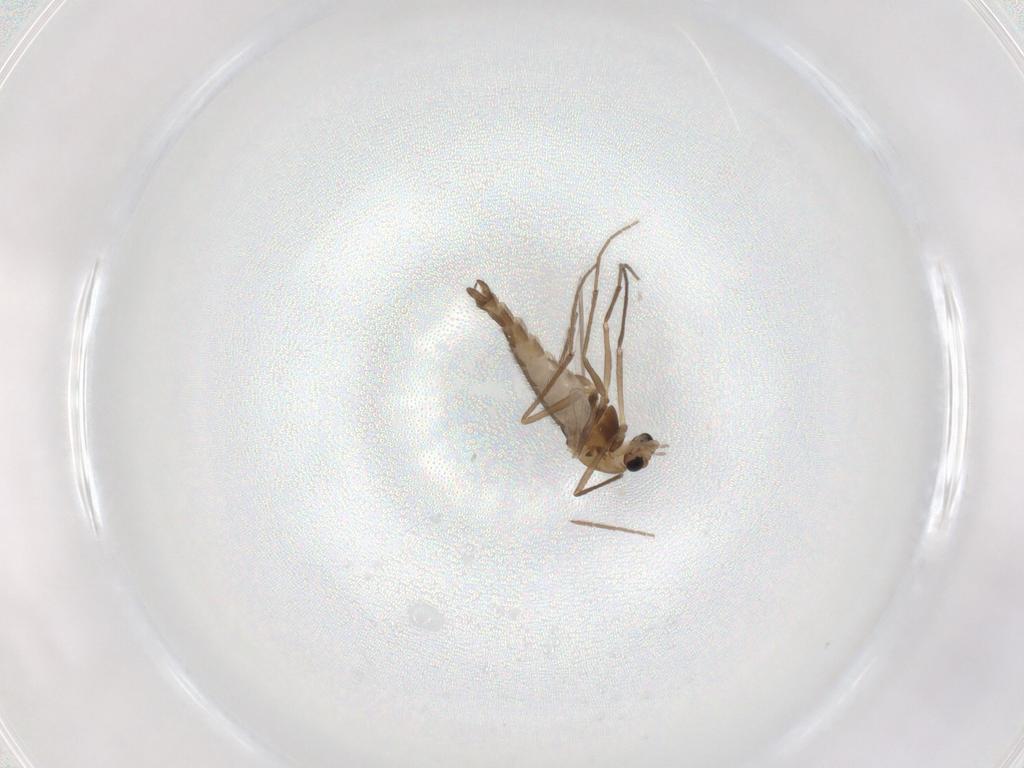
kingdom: Animalia
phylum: Arthropoda
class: Insecta
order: Diptera
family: Chironomidae
